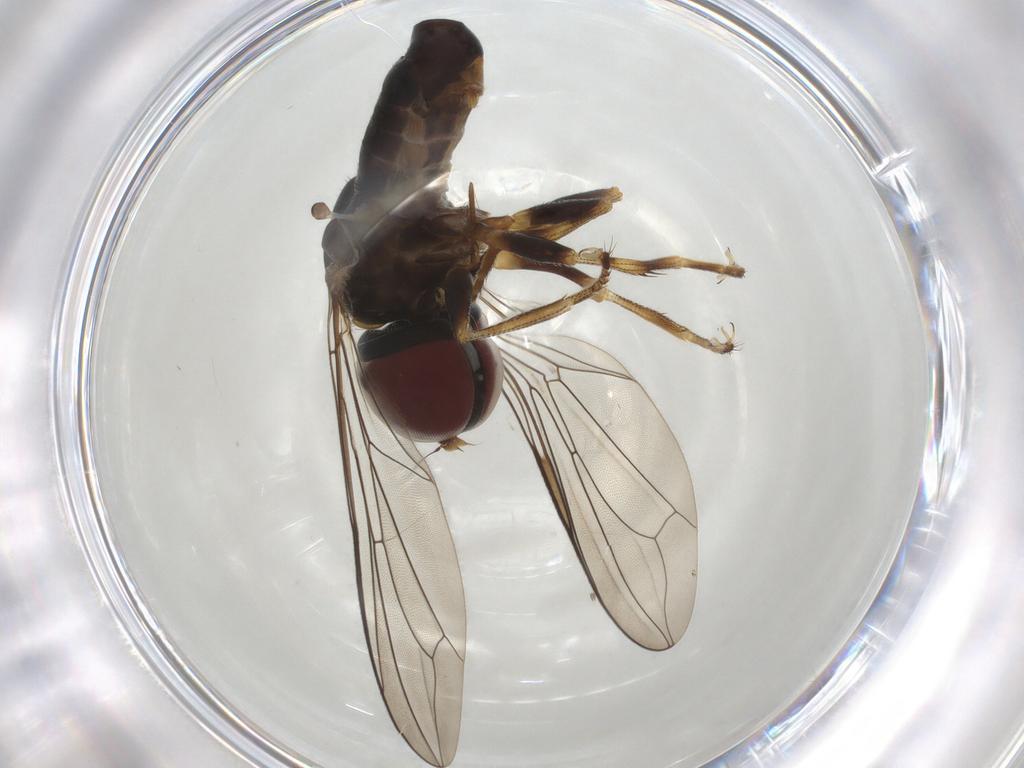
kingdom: Animalia
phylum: Arthropoda
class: Insecta
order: Diptera
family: Pipunculidae
